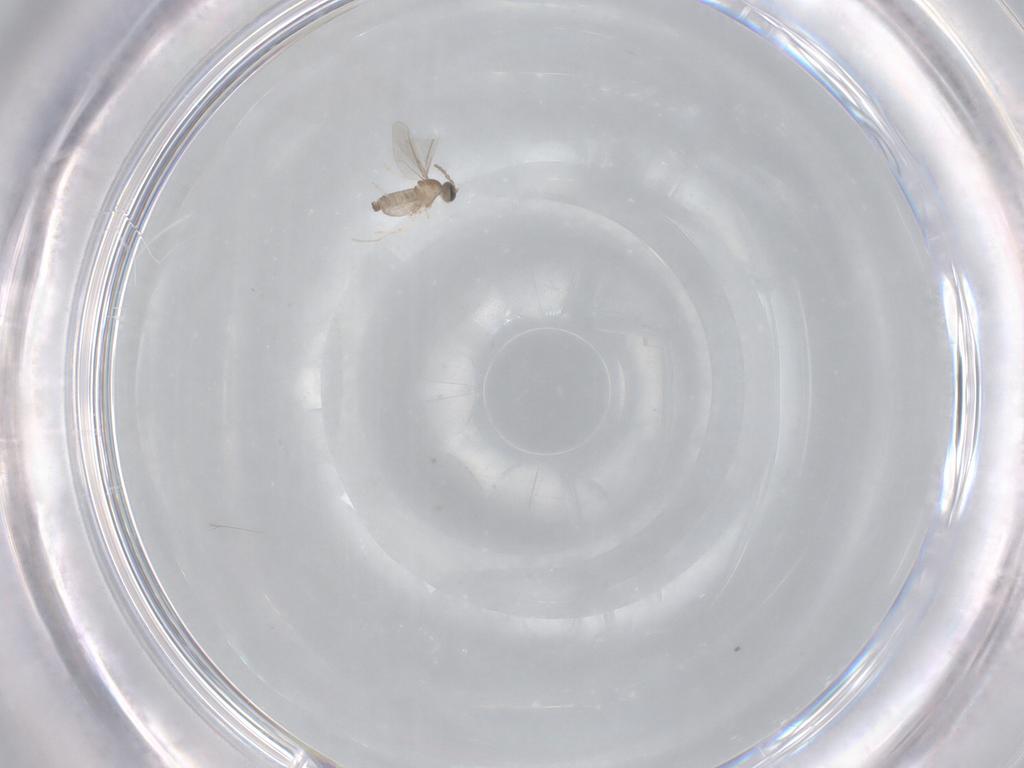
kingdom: Animalia
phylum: Arthropoda
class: Insecta
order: Diptera
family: Cecidomyiidae
